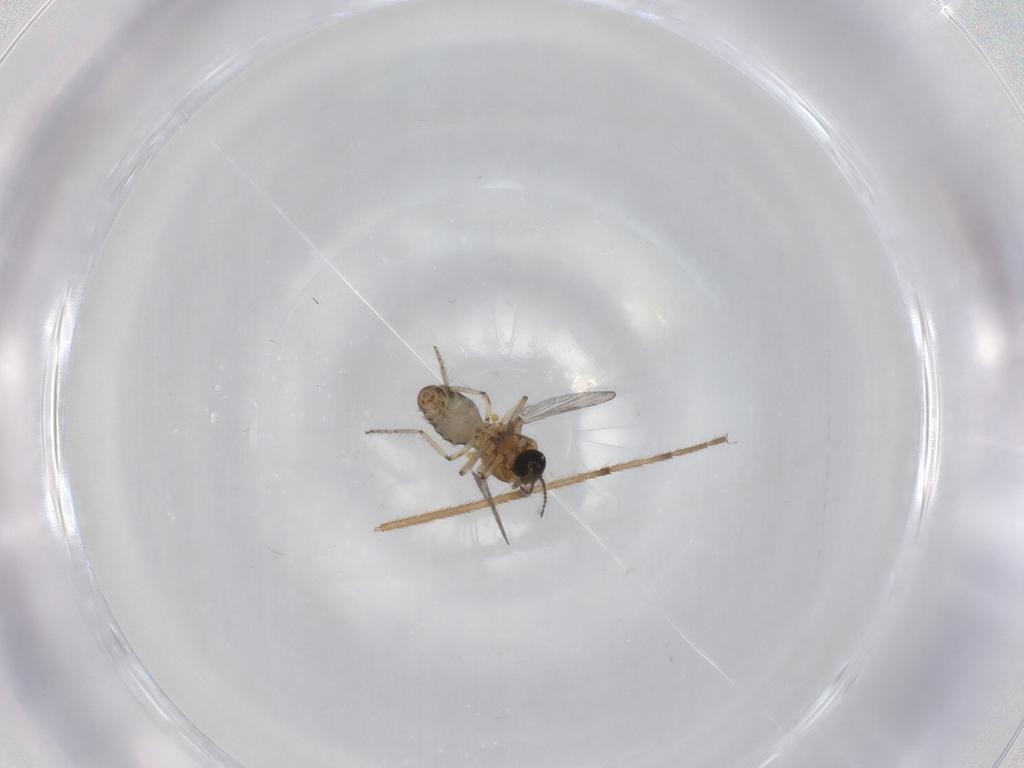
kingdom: Animalia
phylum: Arthropoda
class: Insecta
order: Diptera
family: Ceratopogonidae
